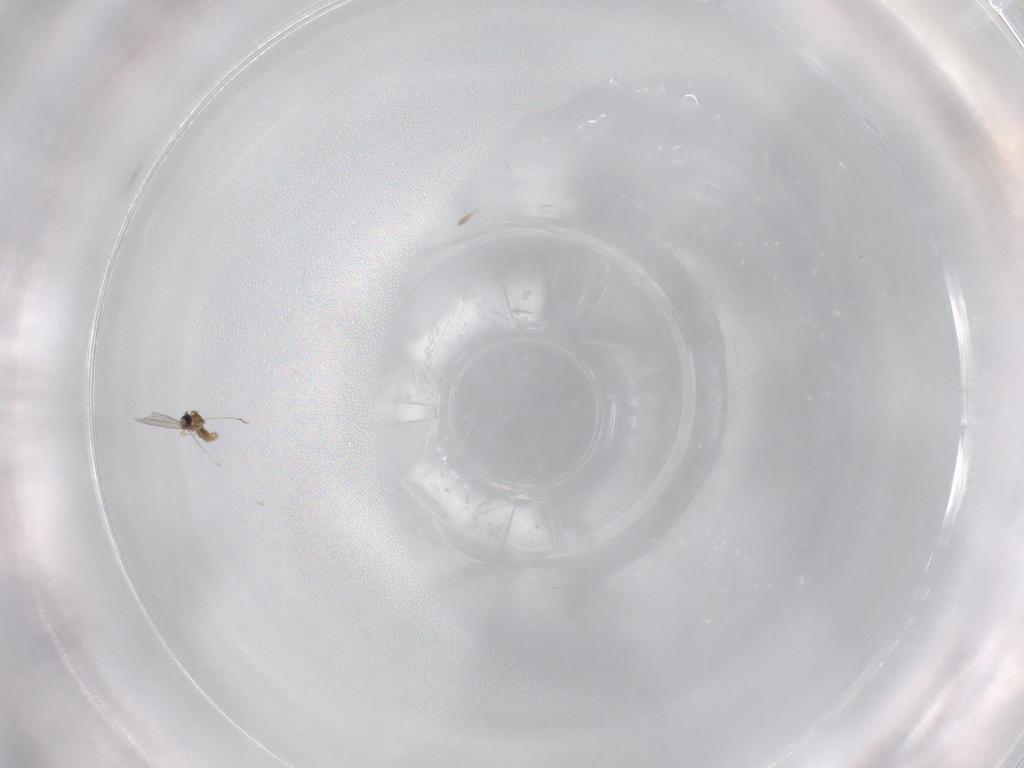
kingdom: Animalia
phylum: Arthropoda
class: Insecta
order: Diptera
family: Cecidomyiidae
